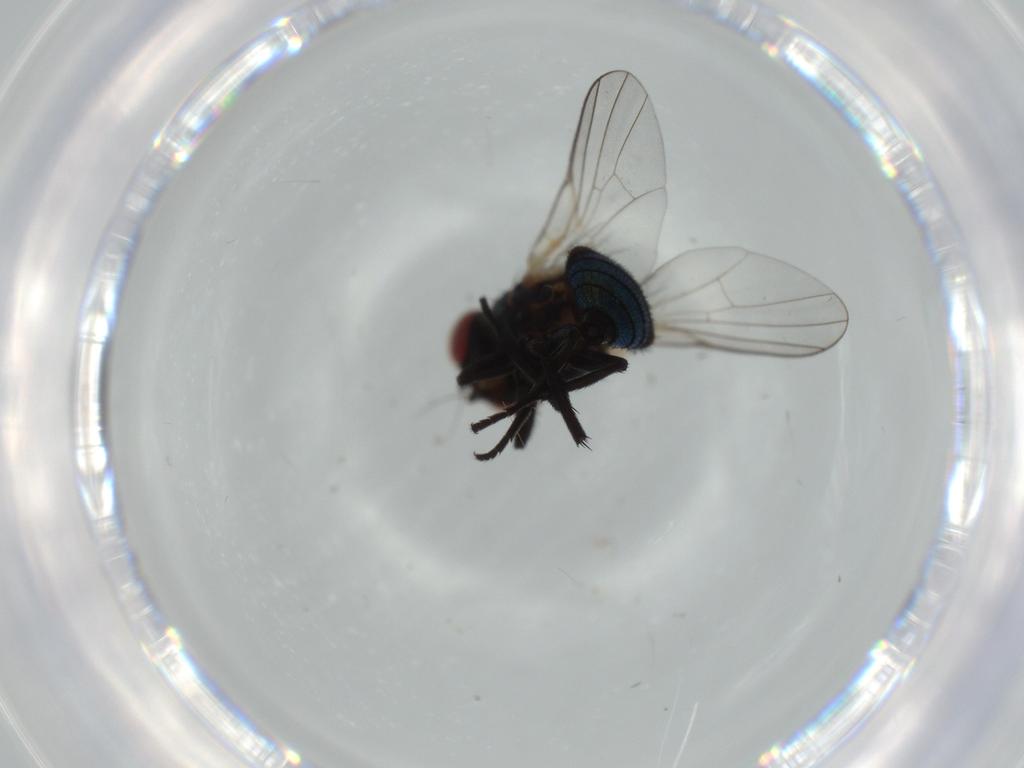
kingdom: Animalia
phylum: Arthropoda
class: Insecta
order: Diptera
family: Agromyzidae
